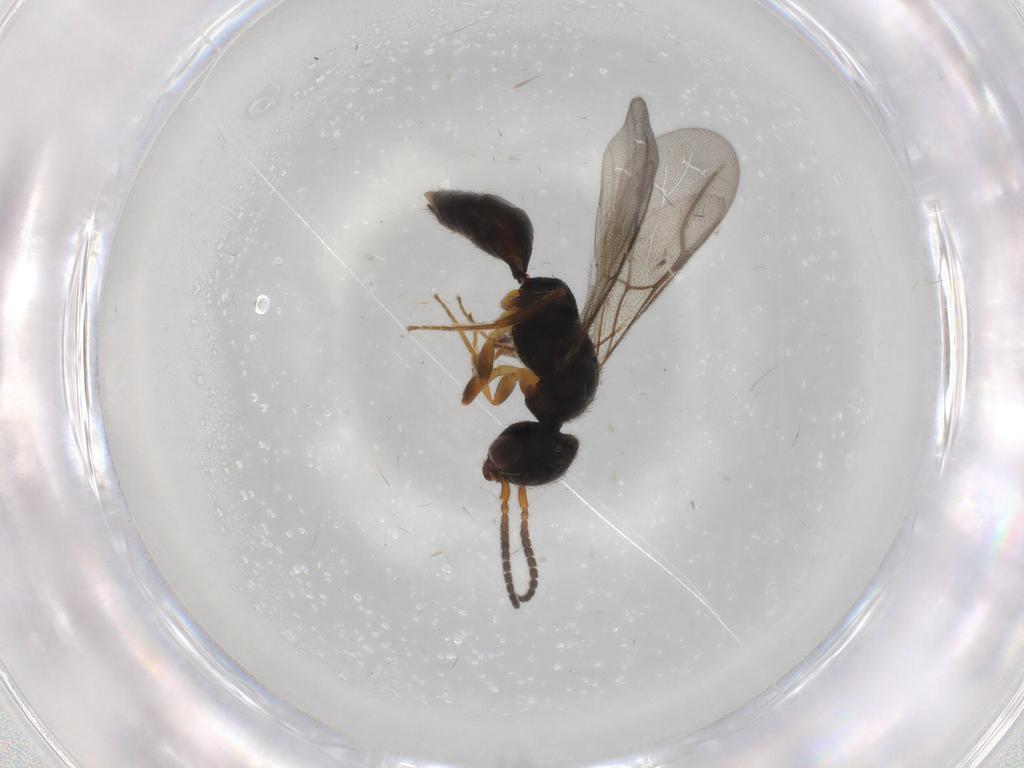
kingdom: Animalia
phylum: Arthropoda
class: Insecta
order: Hymenoptera
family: Bethylidae
